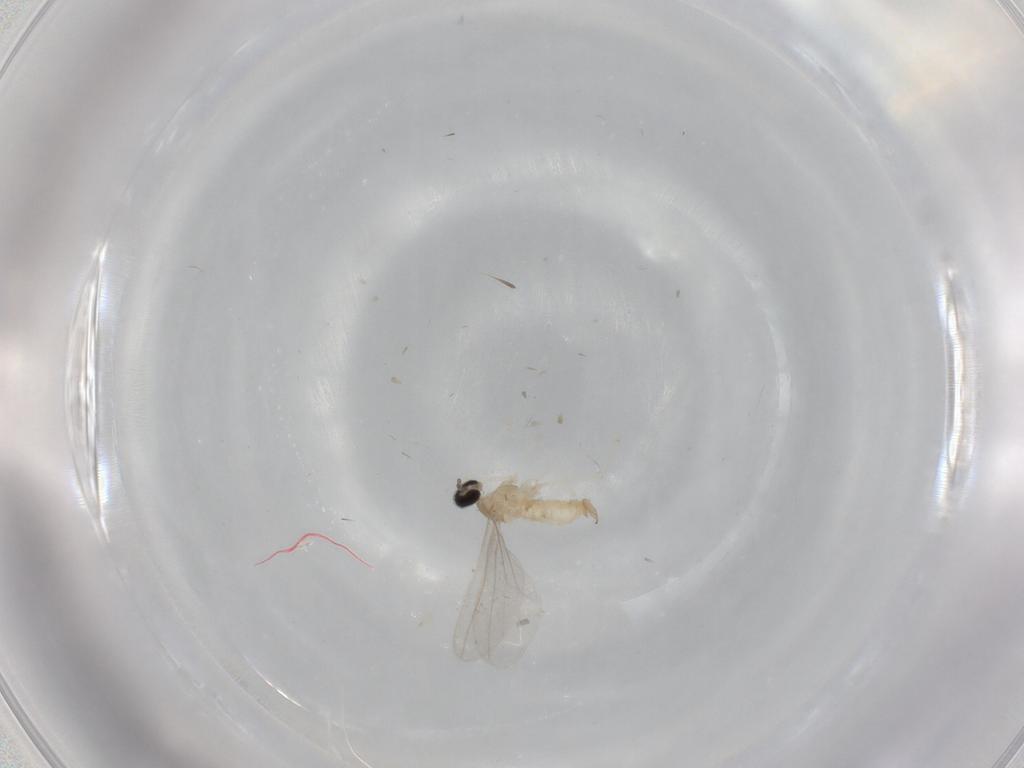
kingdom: Animalia
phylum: Arthropoda
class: Insecta
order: Diptera
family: Cecidomyiidae
